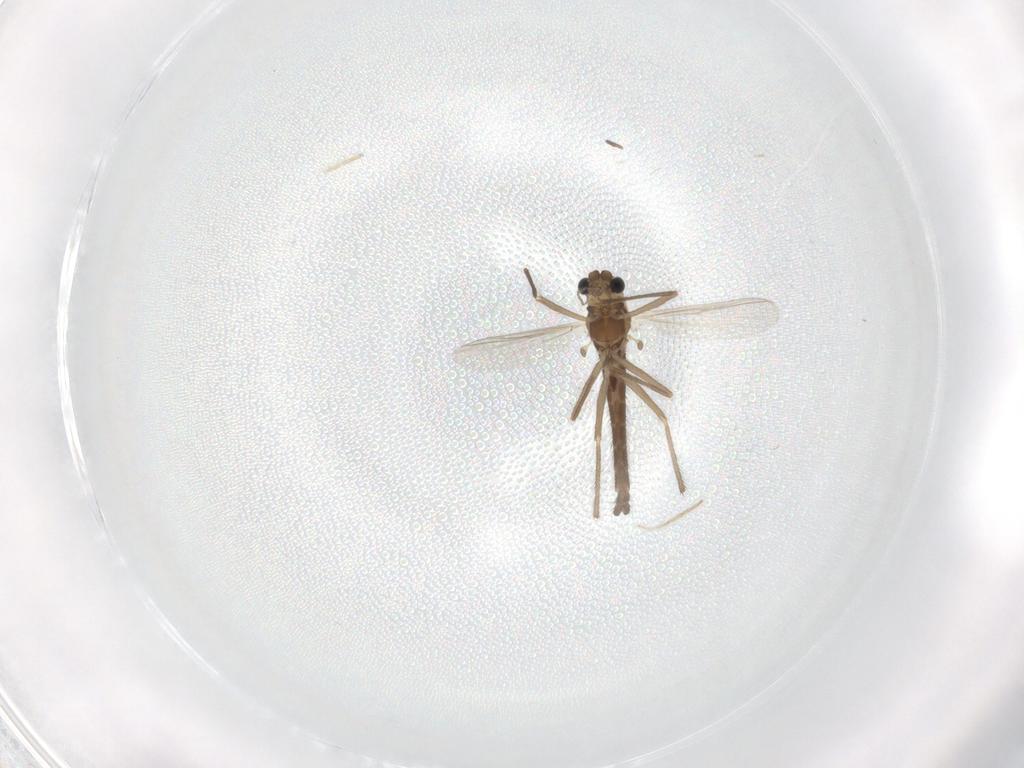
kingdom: Animalia
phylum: Arthropoda
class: Insecta
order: Diptera
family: Chironomidae
